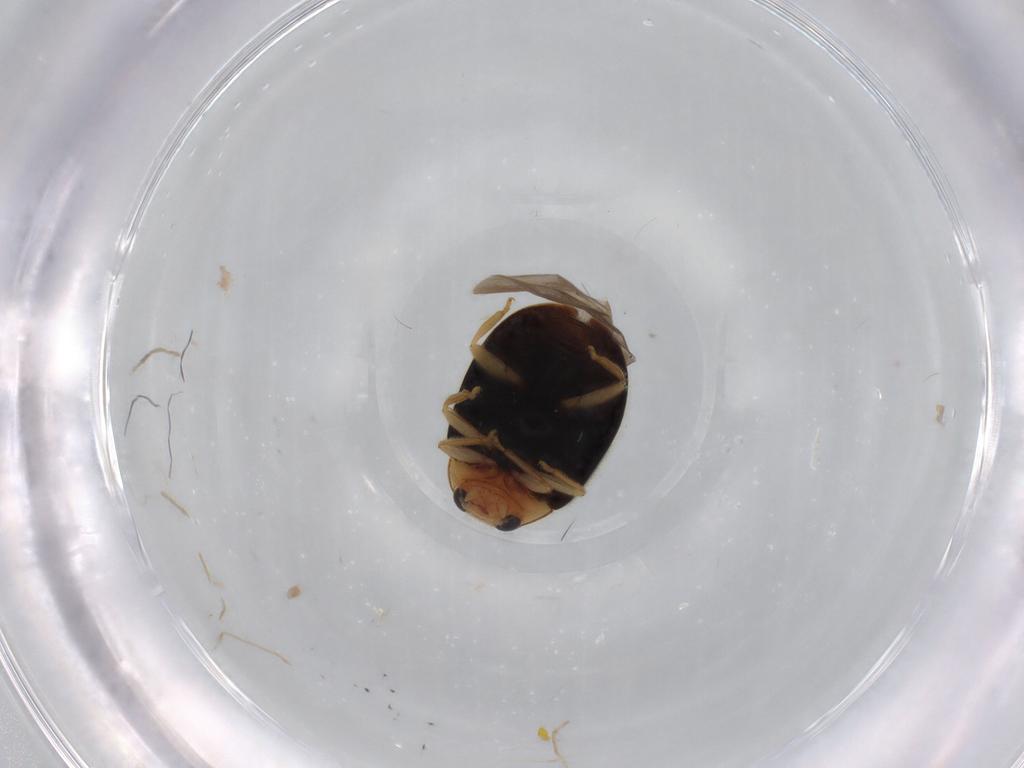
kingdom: Animalia
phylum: Arthropoda
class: Insecta
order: Coleoptera
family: Coccinellidae
